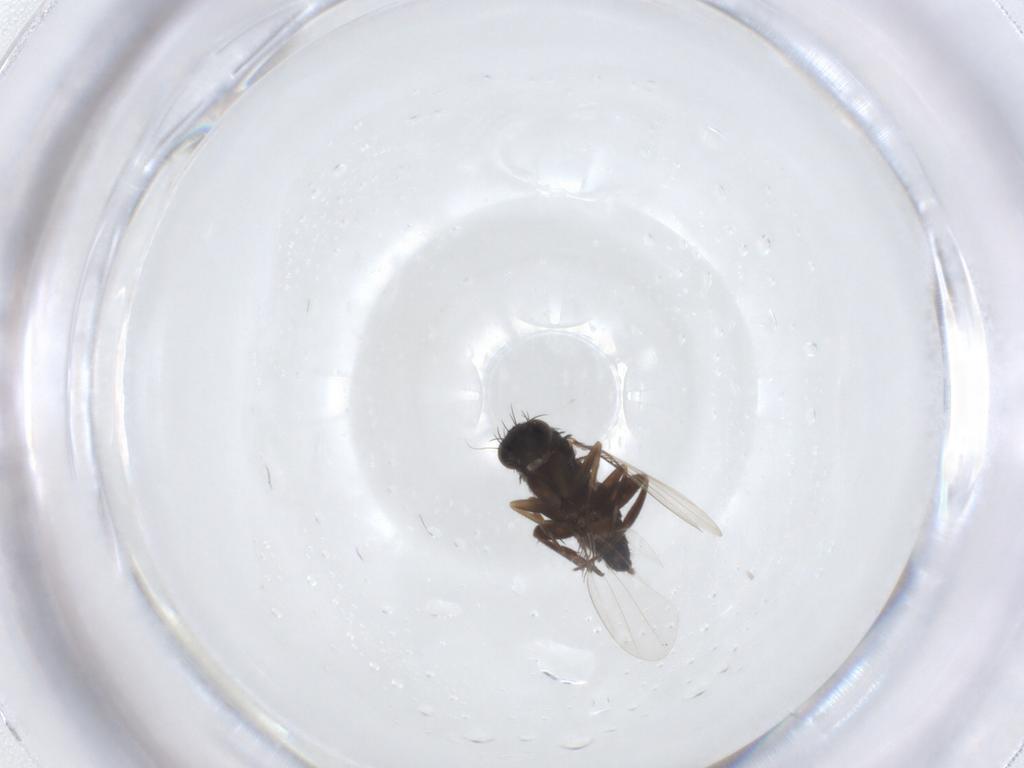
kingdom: Animalia
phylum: Arthropoda
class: Insecta
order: Diptera
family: Phoridae
